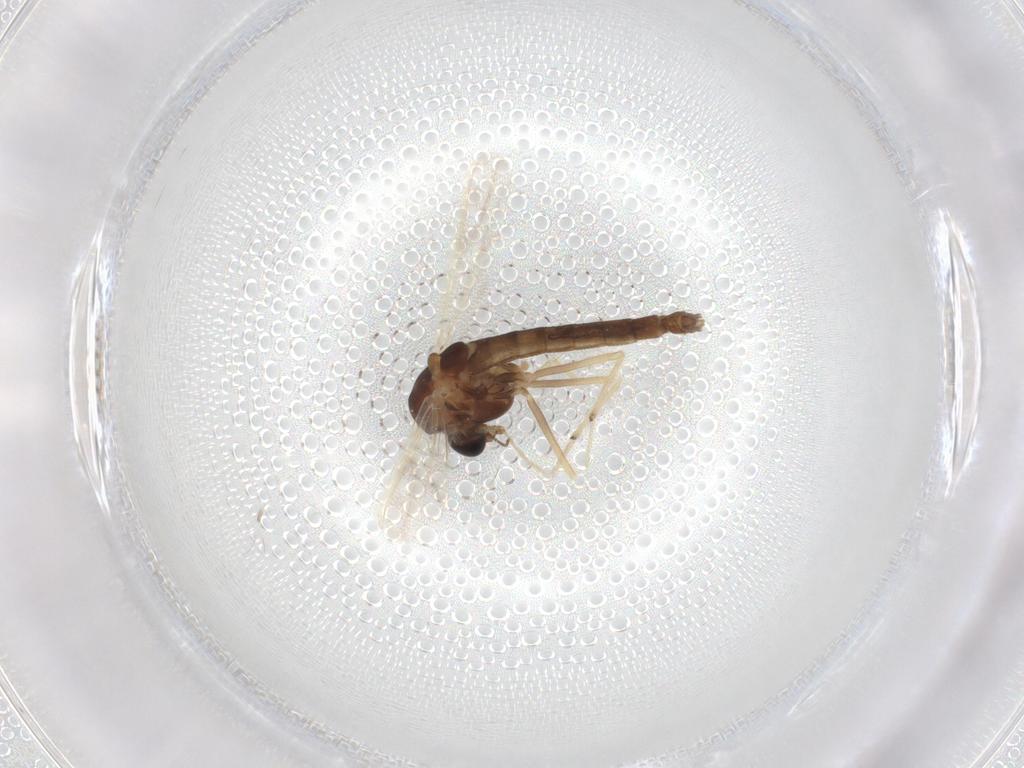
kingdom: Animalia
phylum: Arthropoda
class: Insecta
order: Diptera
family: Chironomidae
